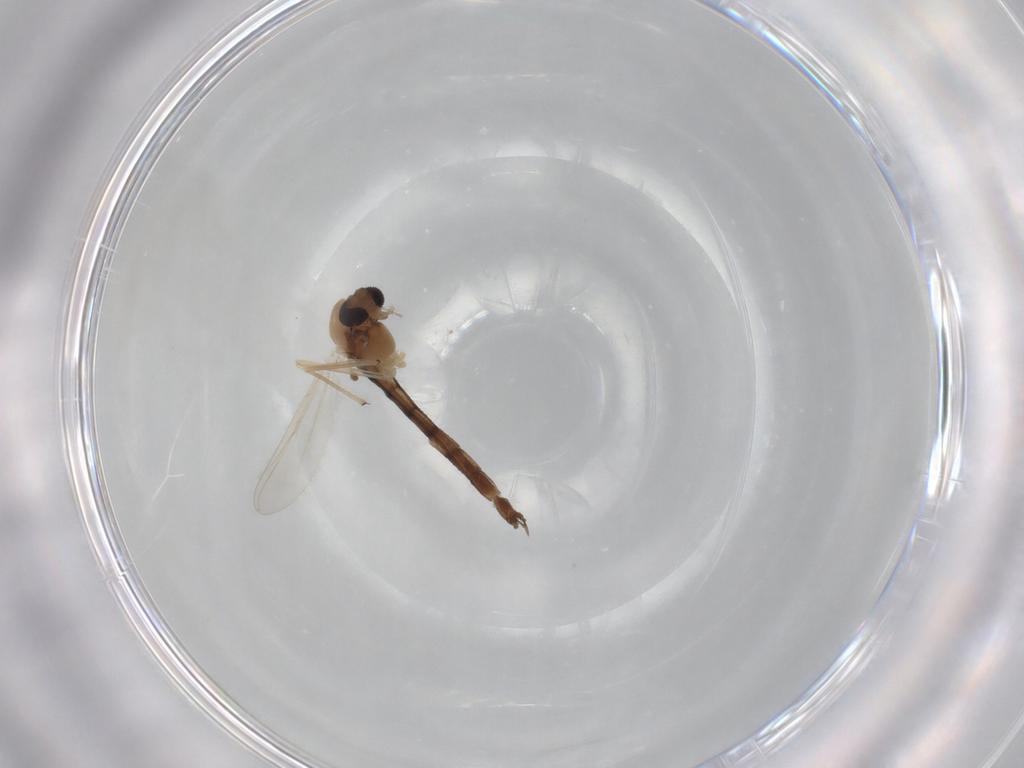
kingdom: Animalia
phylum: Arthropoda
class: Insecta
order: Diptera
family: Chironomidae
